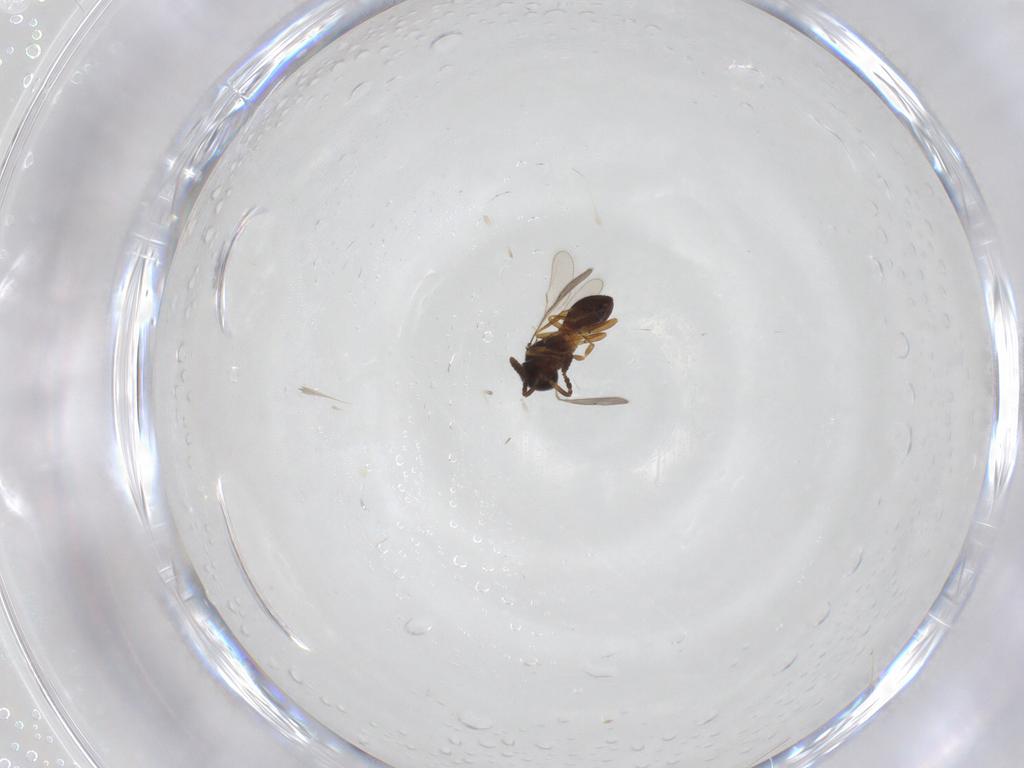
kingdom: Animalia
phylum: Arthropoda
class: Insecta
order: Hymenoptera
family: Scelionidae
